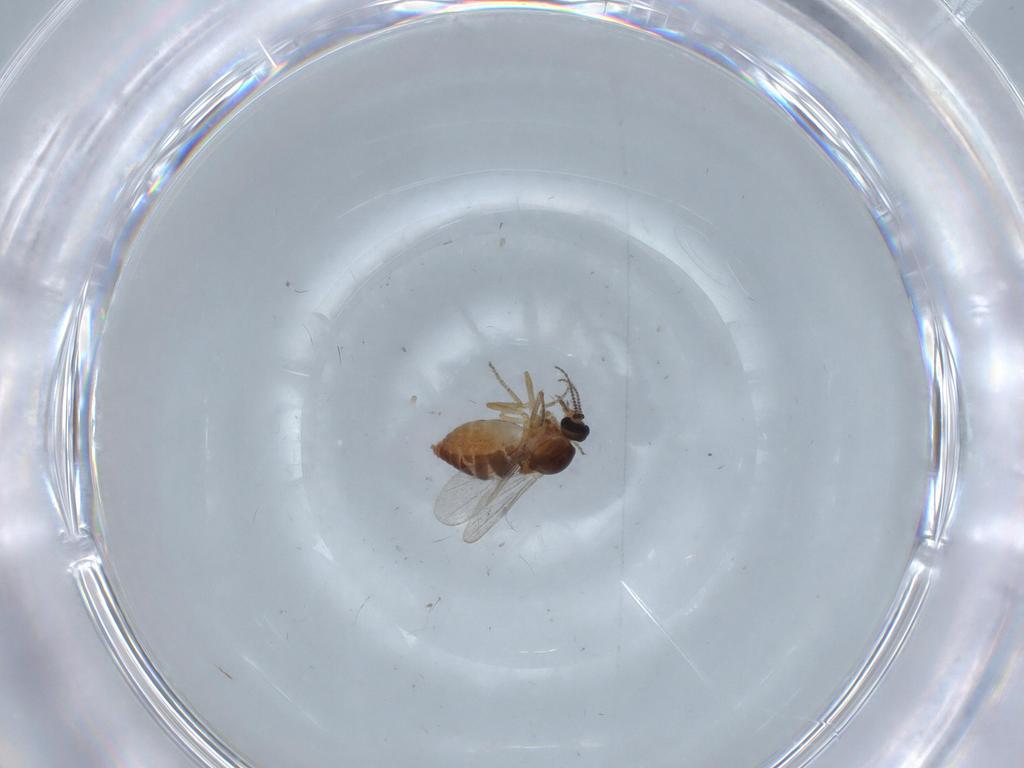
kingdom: Animalia
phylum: Arthropoda
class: Insecta
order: Diptera
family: Ceratopogonidae
